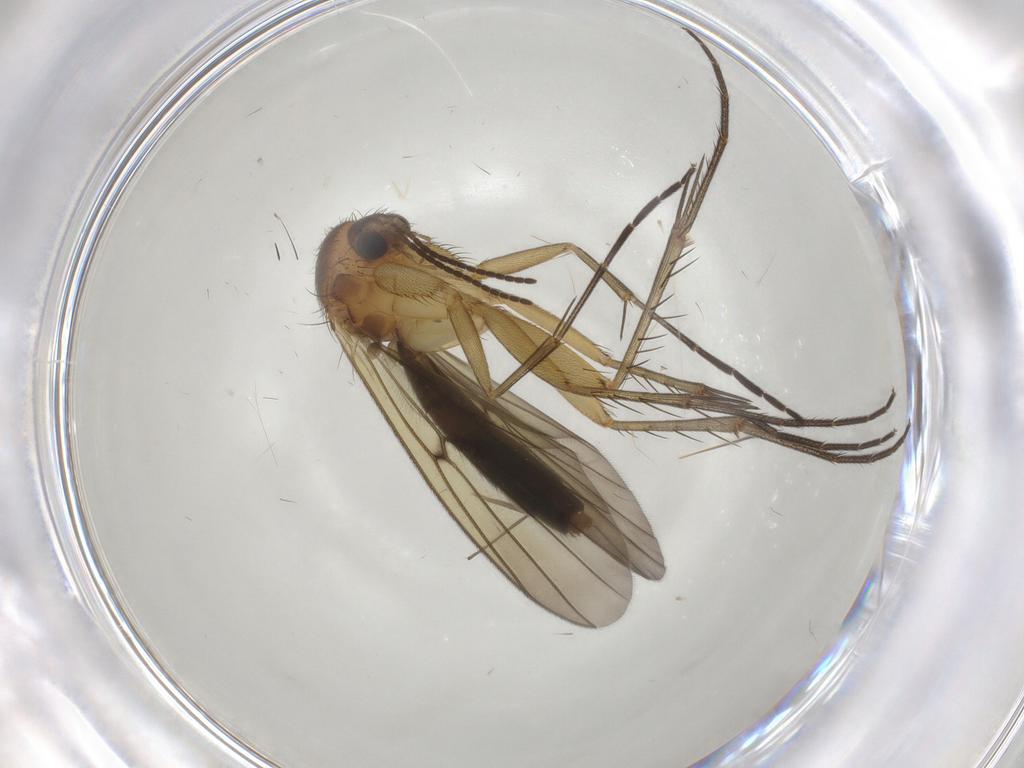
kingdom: Animalia
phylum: Arthropoda
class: Insecta
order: Diptera
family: Mycetophilidae
